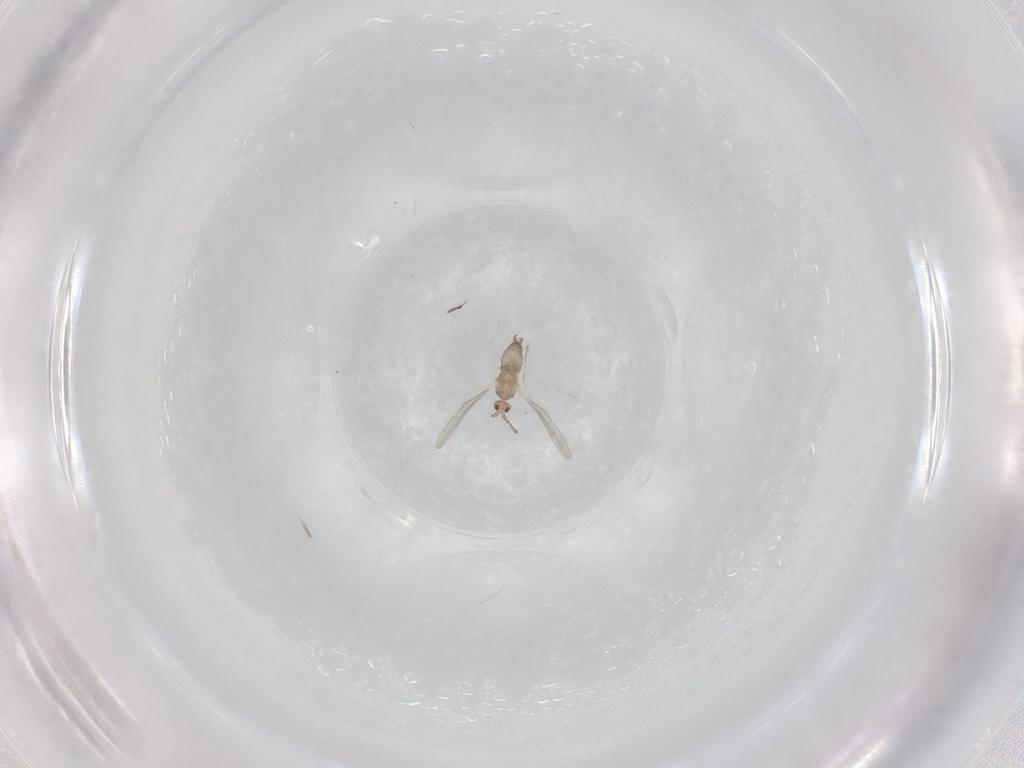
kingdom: Animalia
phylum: Arthropoda
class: Insecta
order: Diptera
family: Cecidomyiidae
